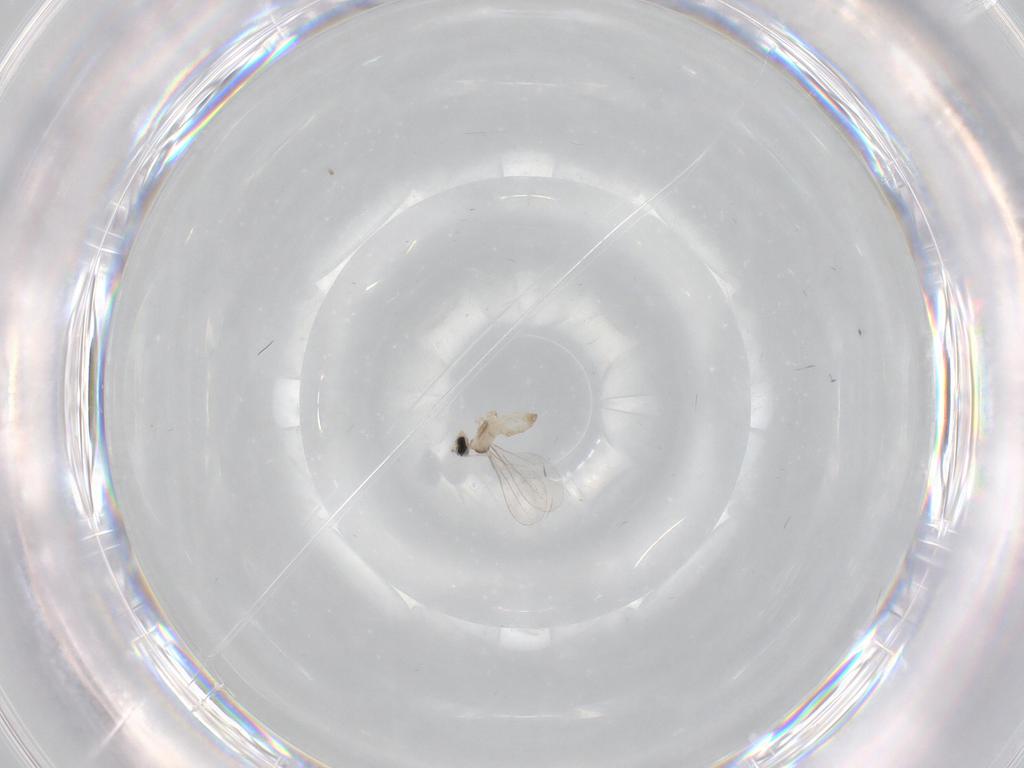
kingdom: Animalia
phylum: Arthropoda
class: Insecta
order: Diptera
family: Cecidomyiidae
